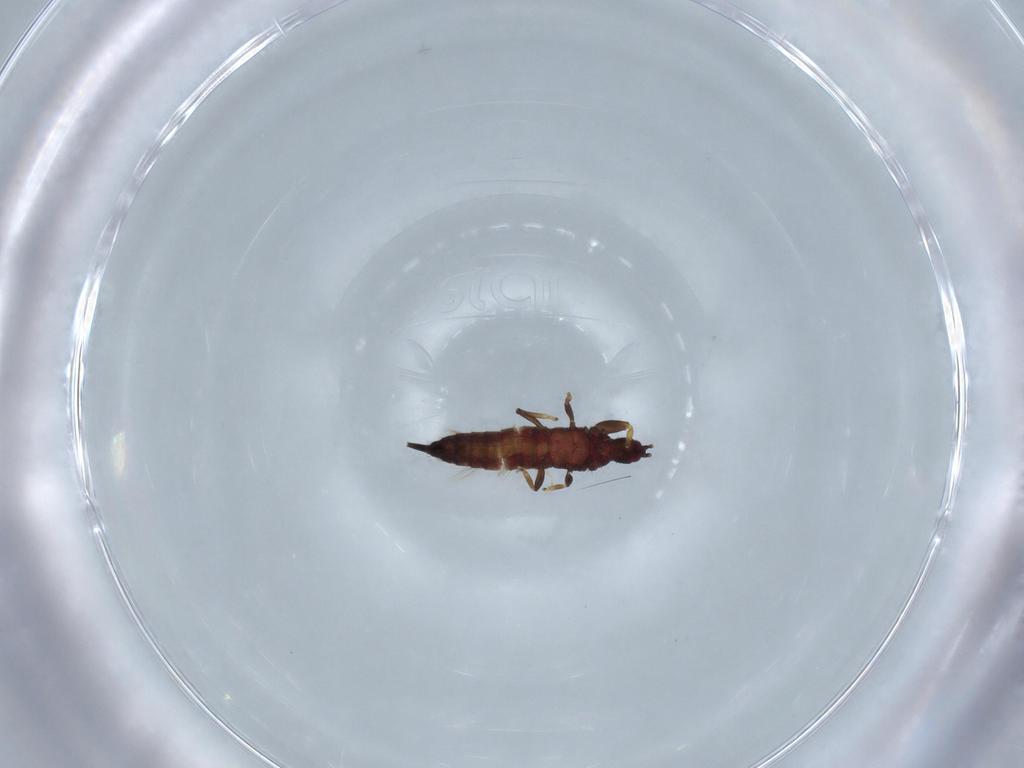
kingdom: Animalia
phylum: Arthropoda
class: Insecta
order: Thysanoptera
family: Phlaeothripidae
